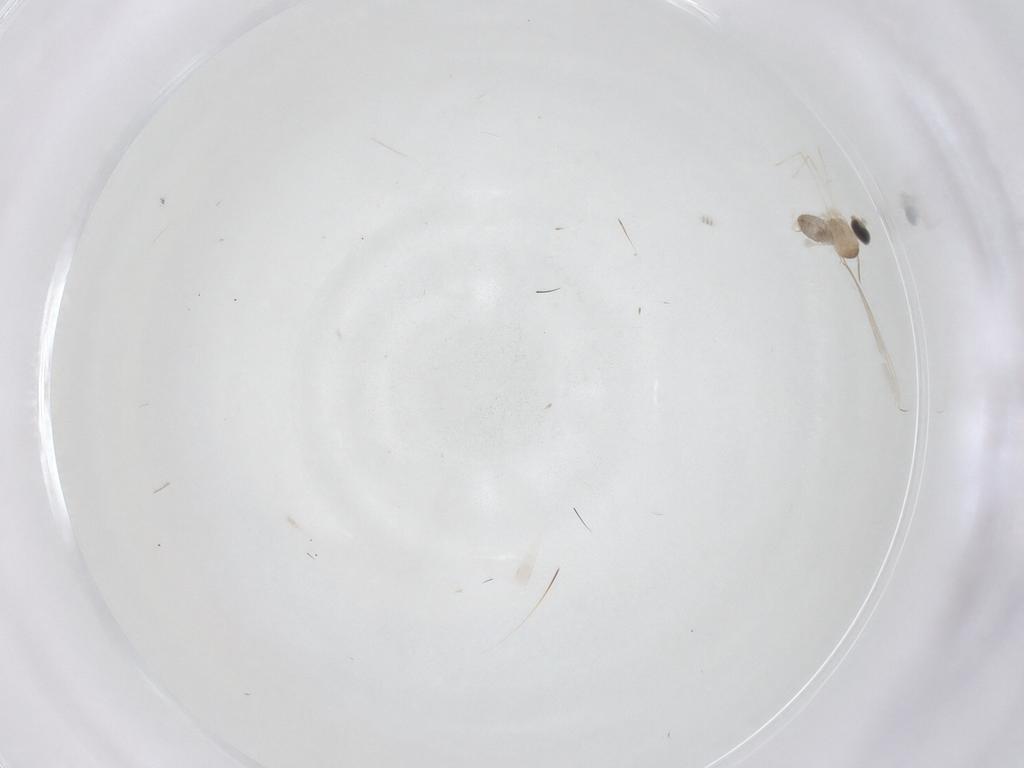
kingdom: Animalia
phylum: Arthropoda
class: Insecta
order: Diptera
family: Cecidomyiidae
